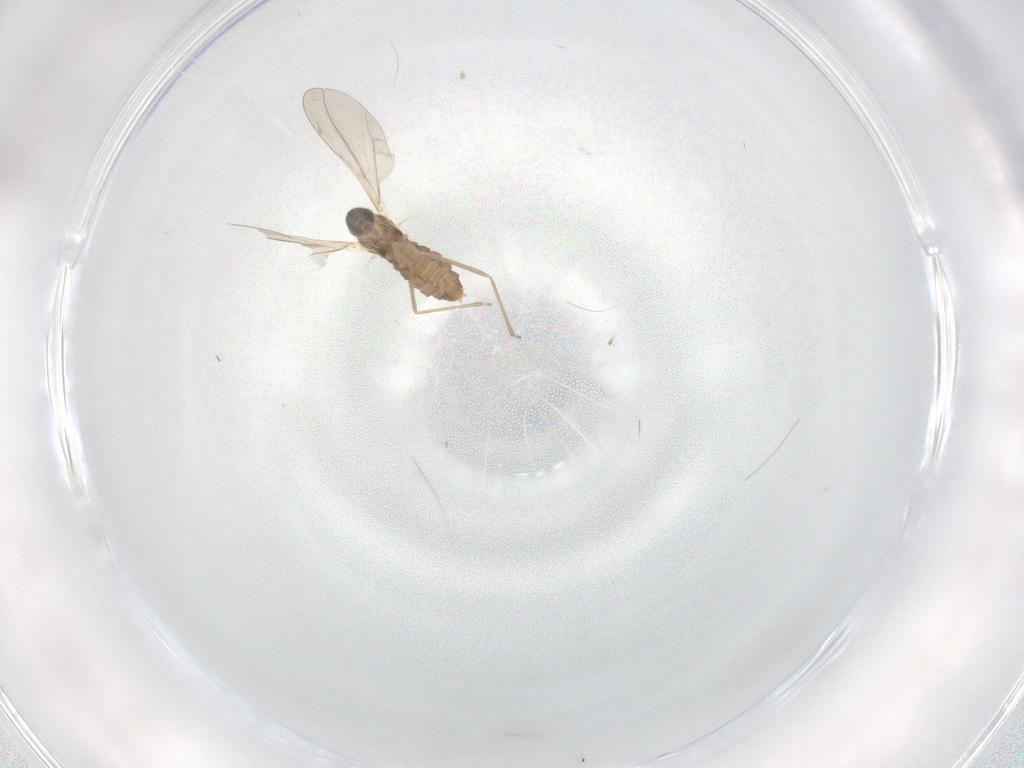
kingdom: Animalia
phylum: Arthropoda
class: Insecta
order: Diptera
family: Cecidomyiidae
